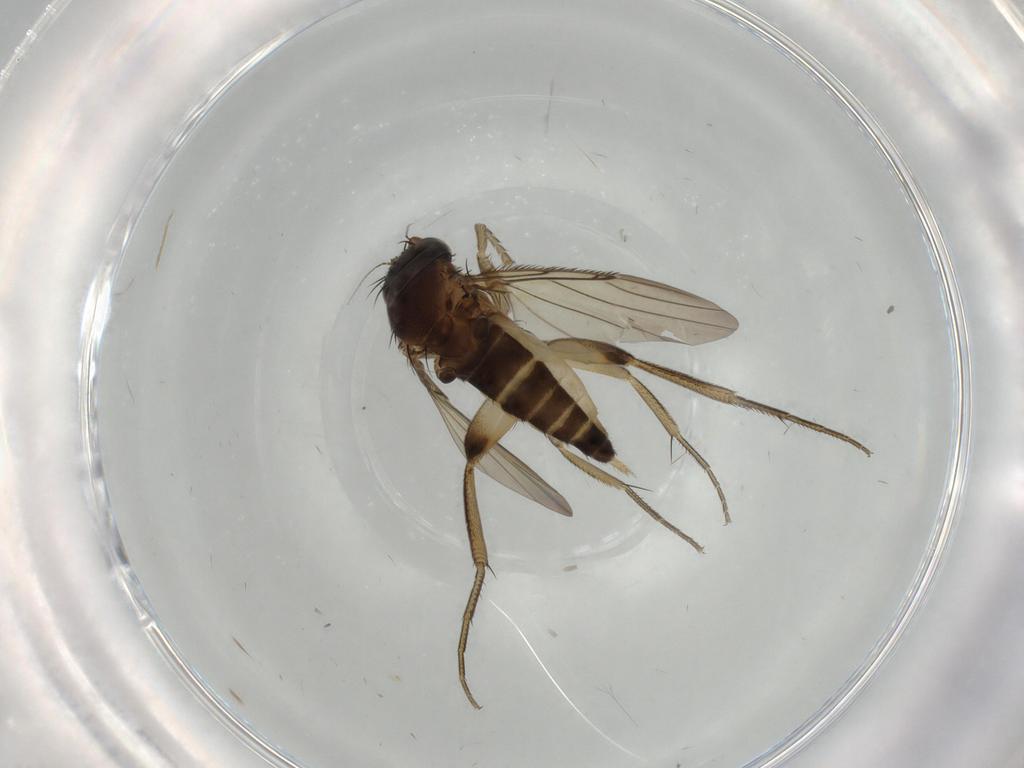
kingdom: Animalia
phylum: Arthropoda
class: Insecta
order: Diptera
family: Phoridae
